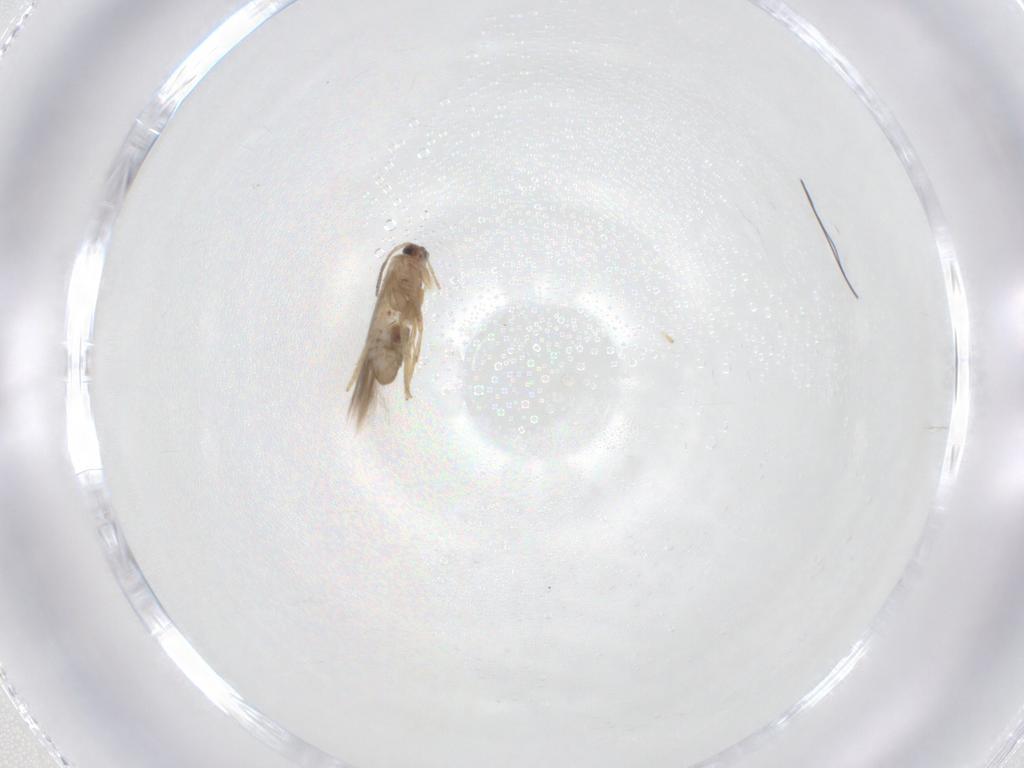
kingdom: Animalia
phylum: Arthropoda
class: Insecta
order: Lepidoptera
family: Nepticulidae
